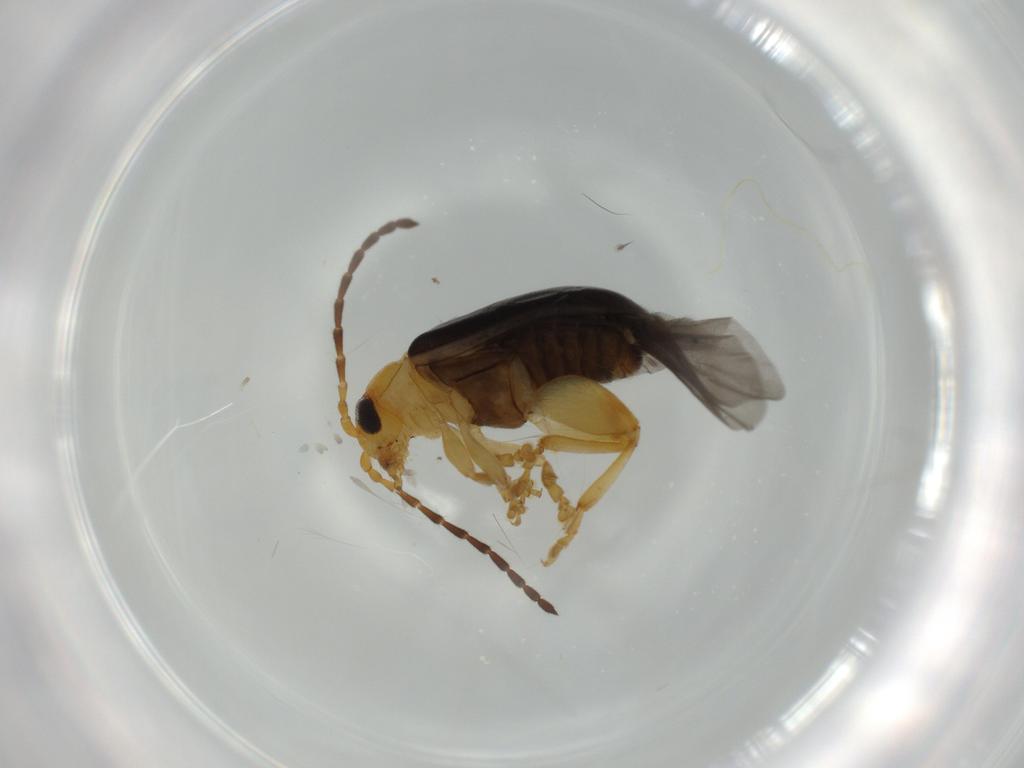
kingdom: Animalia
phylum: Arthropoda
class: Insecta
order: Coleoptera
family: Chrysomelidae
